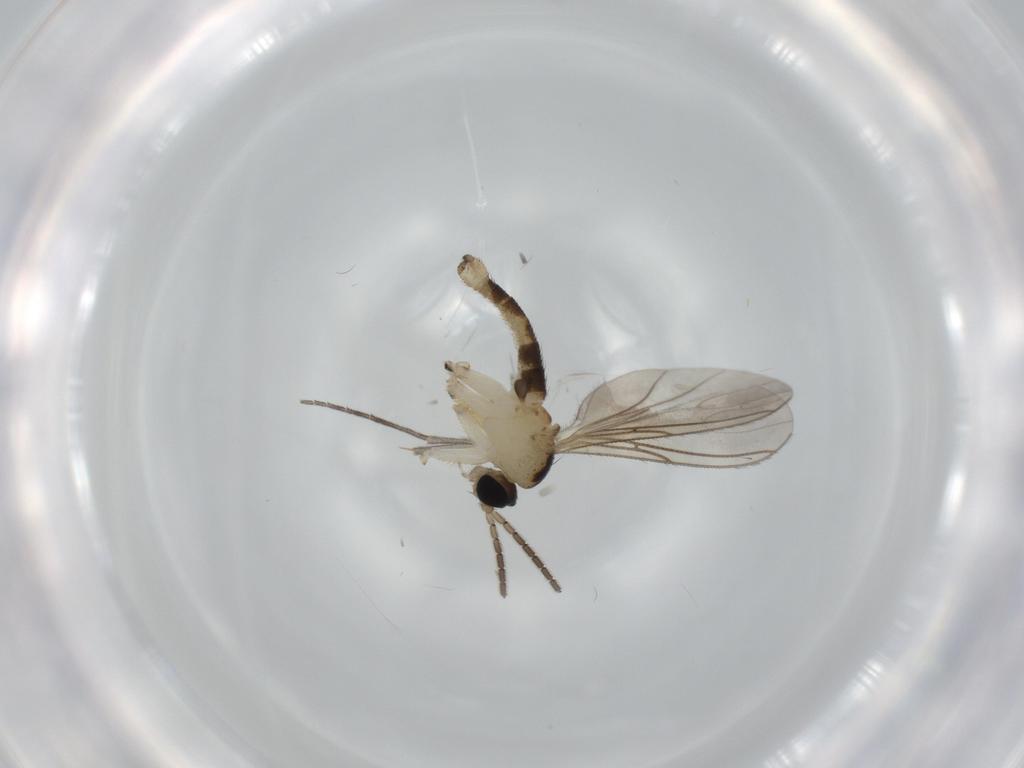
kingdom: Animalia
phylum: Arthropoda
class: Insecta
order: Diptera
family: Sciaridae
